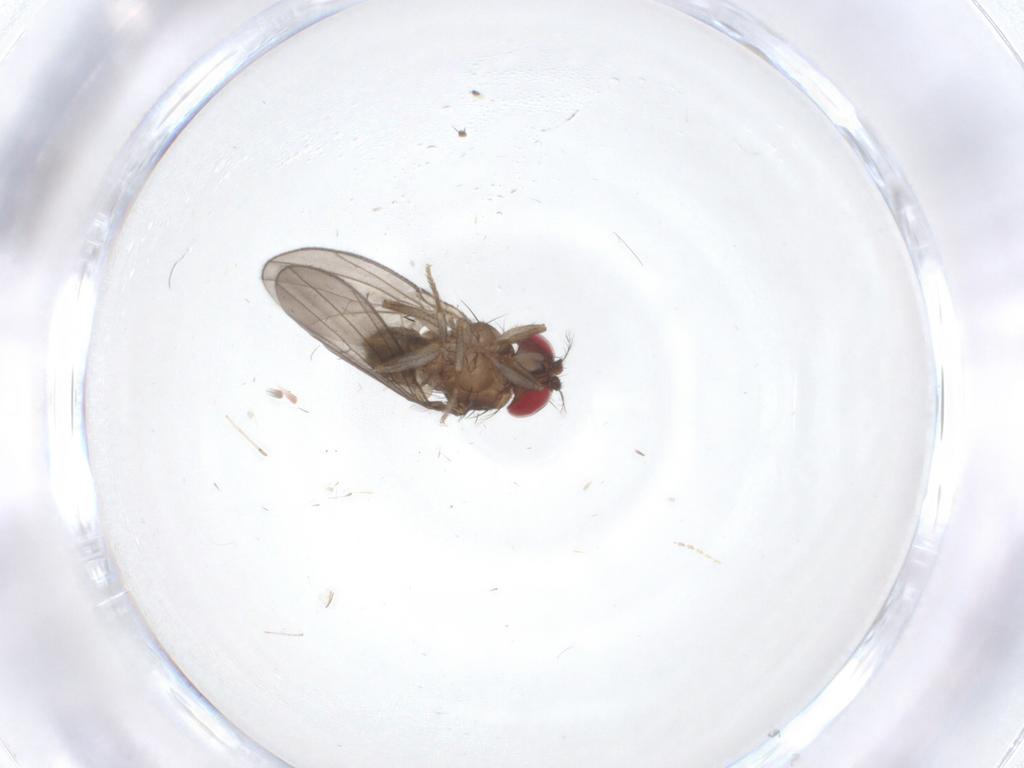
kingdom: Animalia
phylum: Arthropoda
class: Insecta
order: Diptera
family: Drosophilidae
